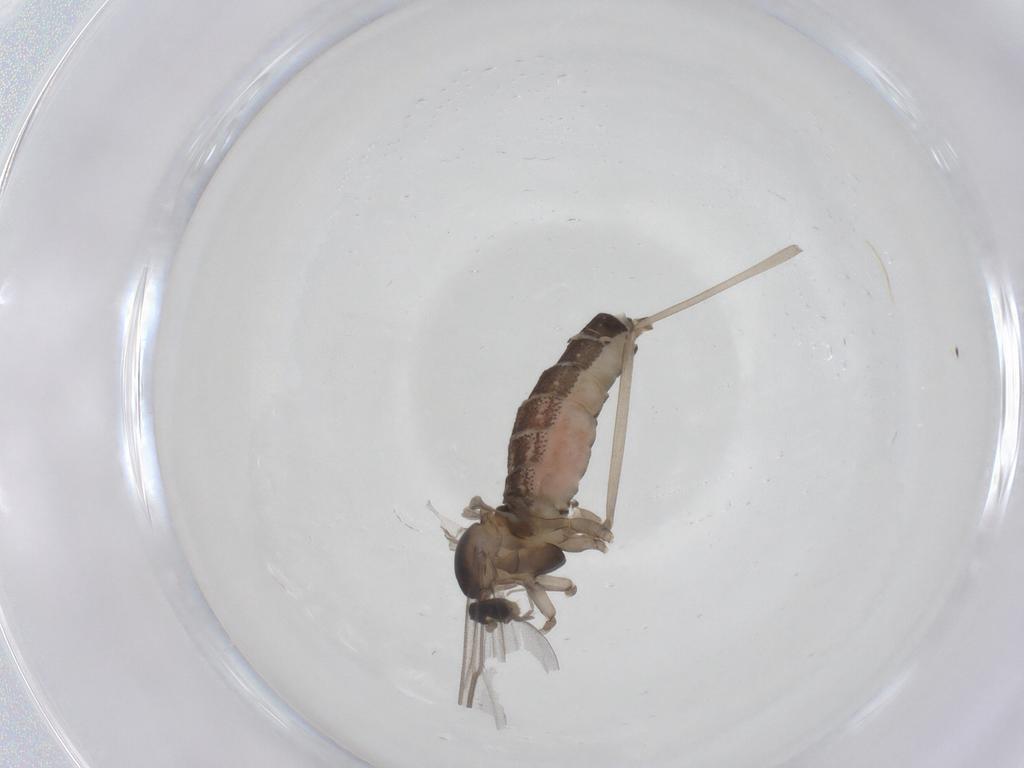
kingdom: Animalia
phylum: Arthropoda
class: Insecta
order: Diptera
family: Cecidomyiidae
